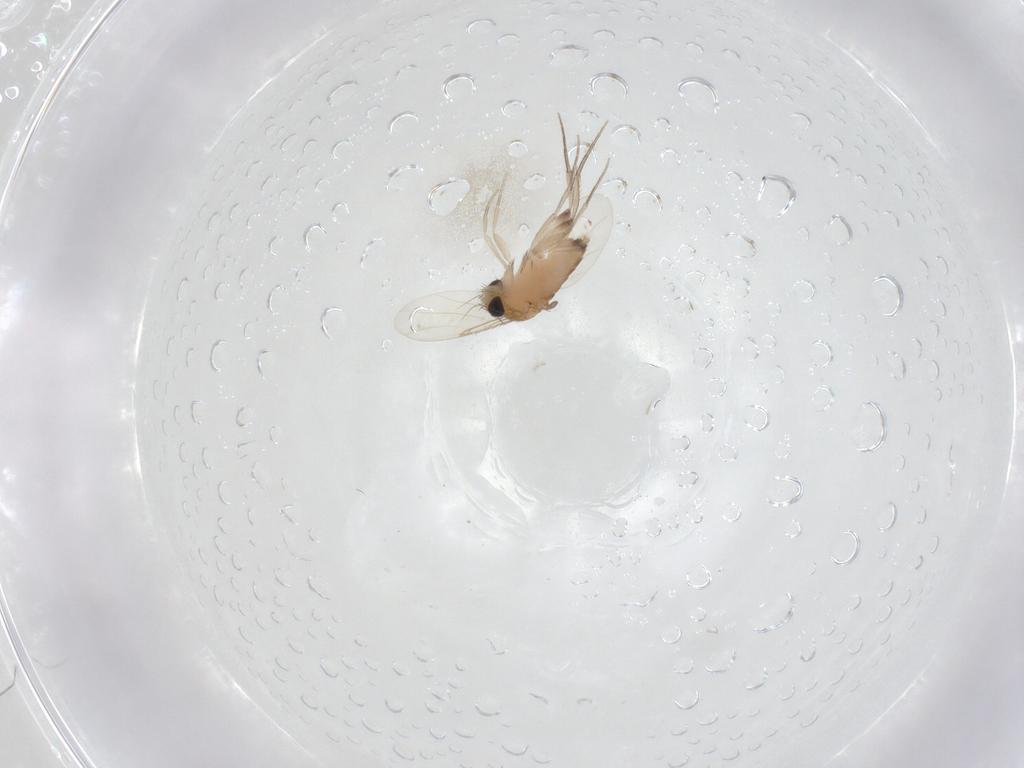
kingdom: Animalia
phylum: Arthropoda
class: Insecta
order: Diptera
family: Phoridae
